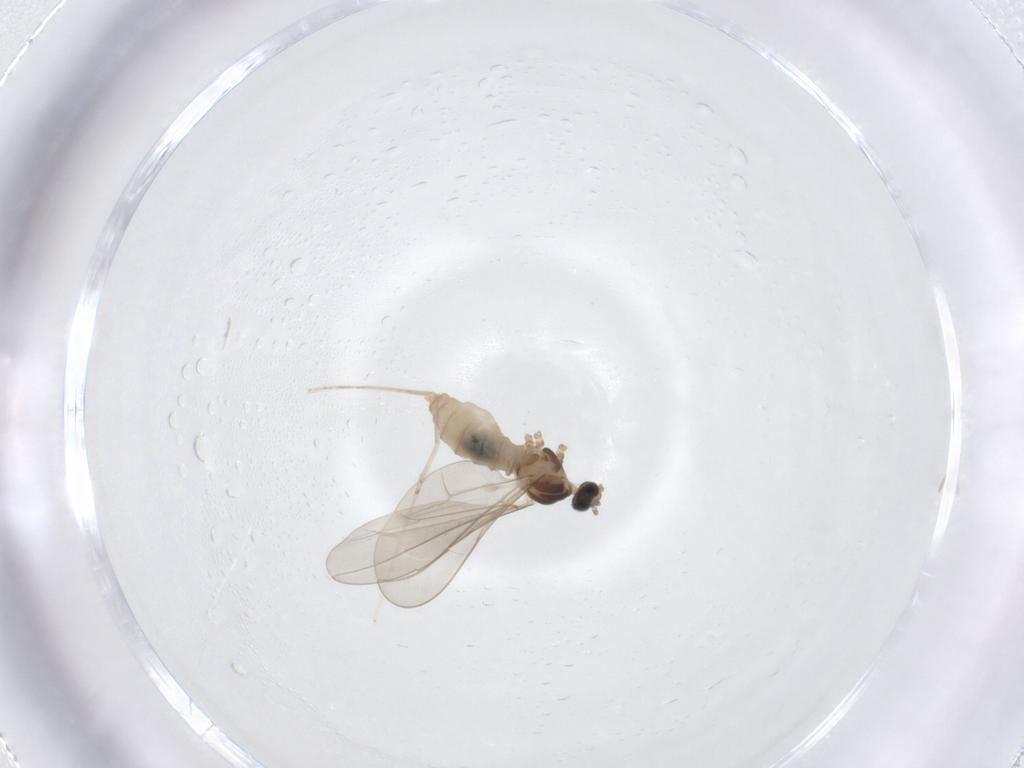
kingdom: Animalia
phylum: Arthropoda
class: Insecta
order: Diptera
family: Cecidomyiidae
